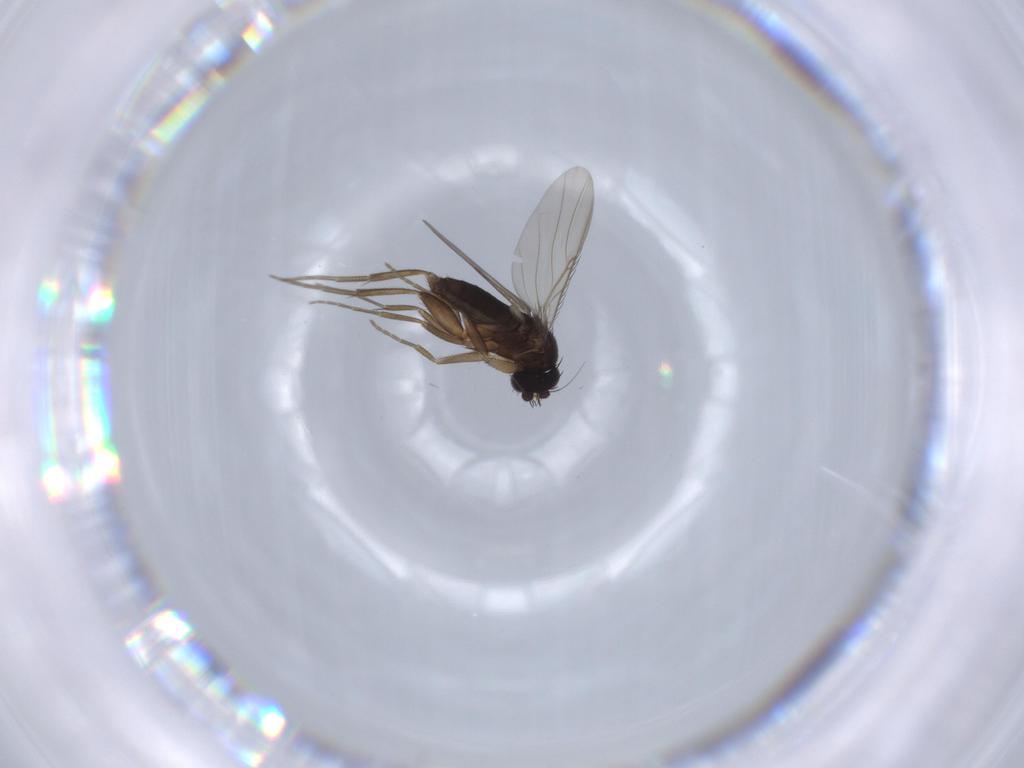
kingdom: Animalia
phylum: Arthropoda
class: Insecta
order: Diptera
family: Phoridae
